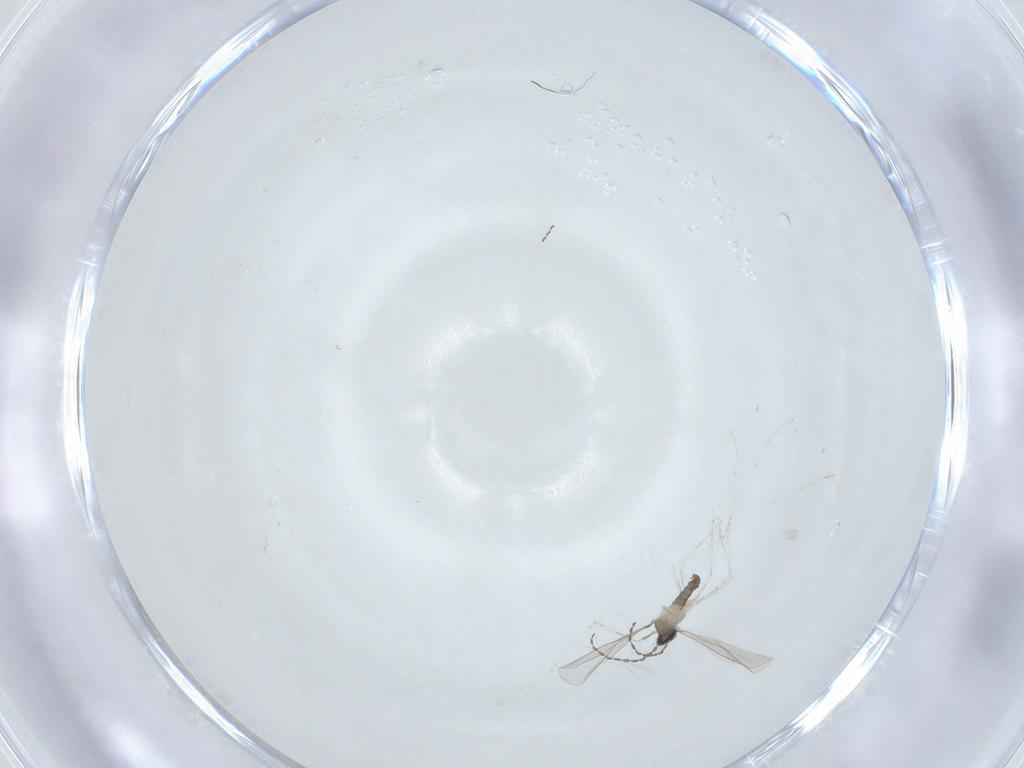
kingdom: Animalia
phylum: Arthropoda
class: Insecta
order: Diptera
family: Cecidomyiidae
